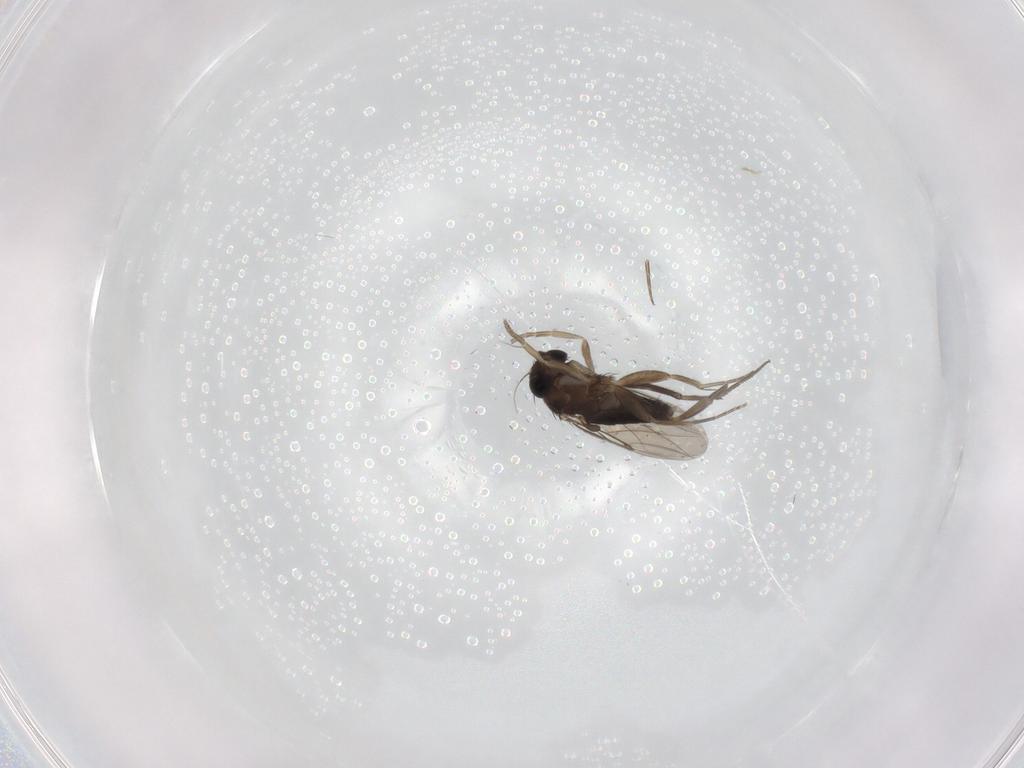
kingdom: Animalia
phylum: Arthropoda
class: Insecta
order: Diptera
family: Phoridae
